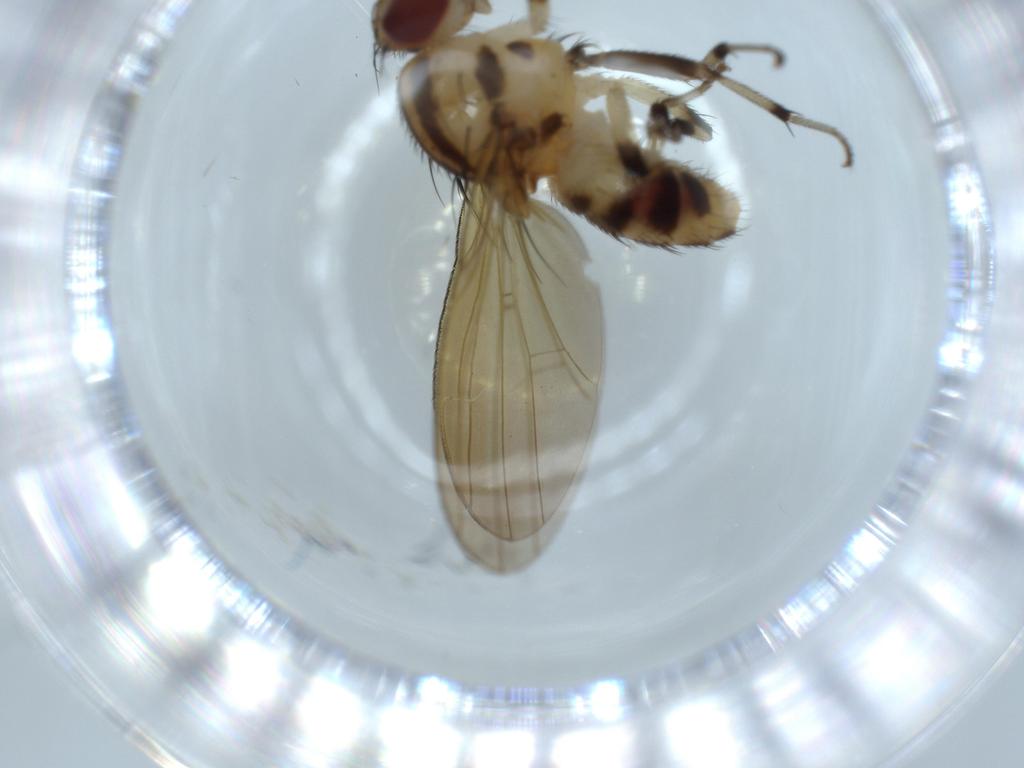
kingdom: Animalia
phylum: Arthropoda
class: Insecta
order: Diptera
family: Lauxaniidae
